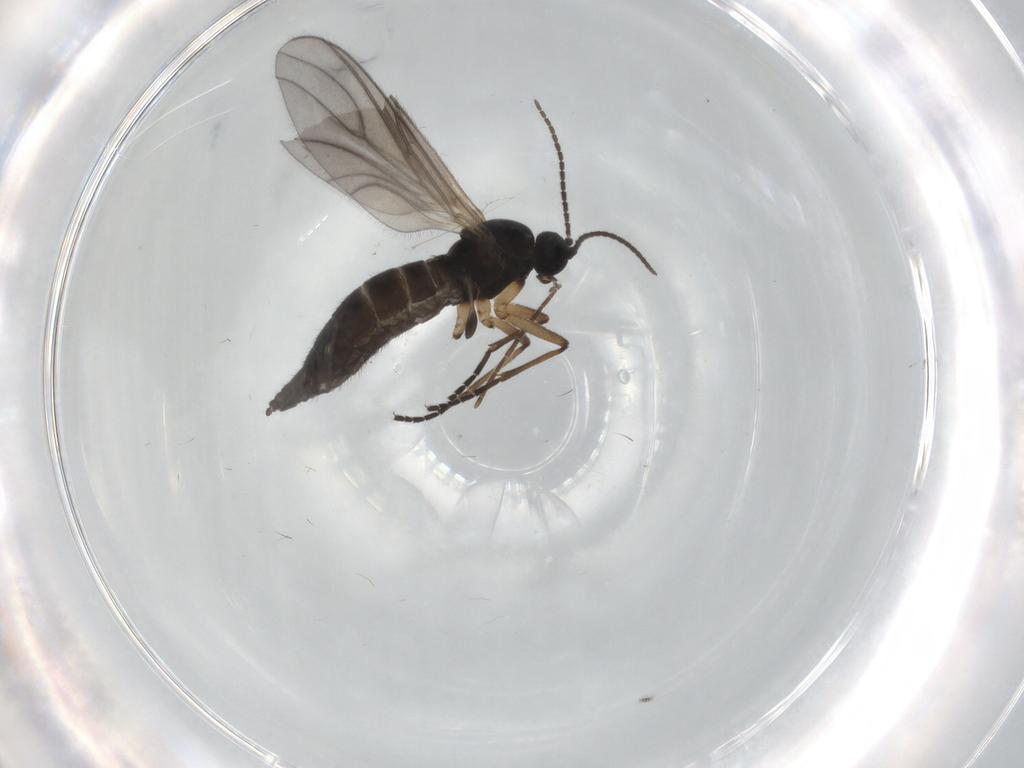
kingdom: Animalia
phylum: Arthropoda
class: Insecta
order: Diptera
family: Sciaridae
